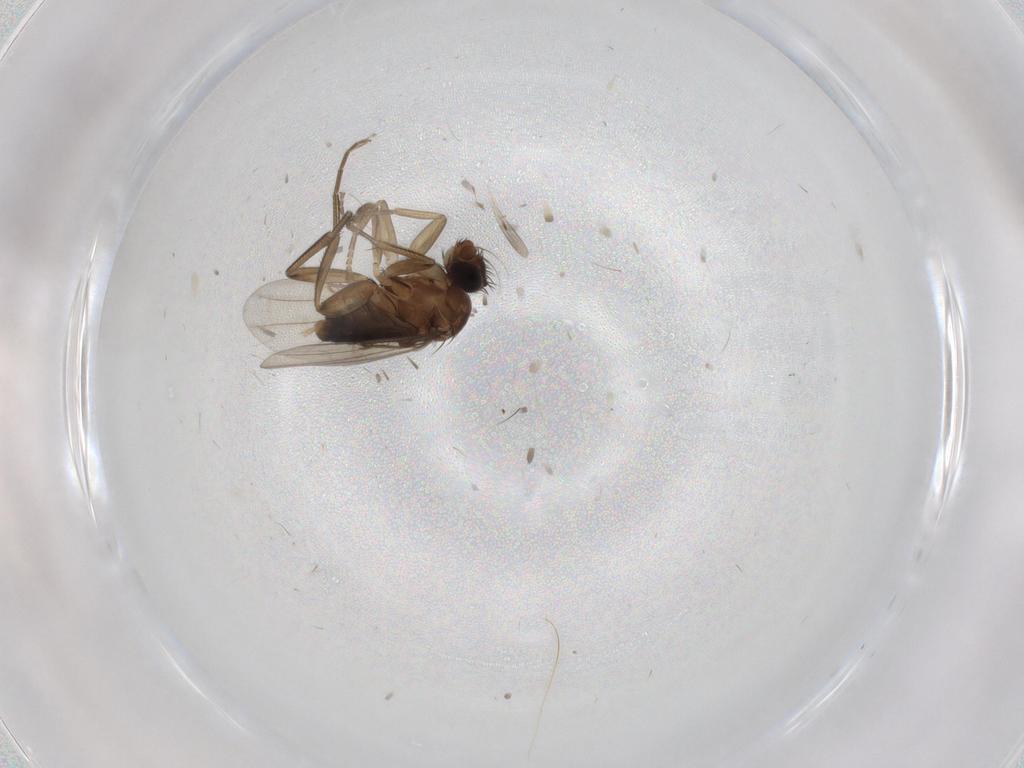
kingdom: Animalia
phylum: Arthropoda
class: Insecta
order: Diptera
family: Phoridae
